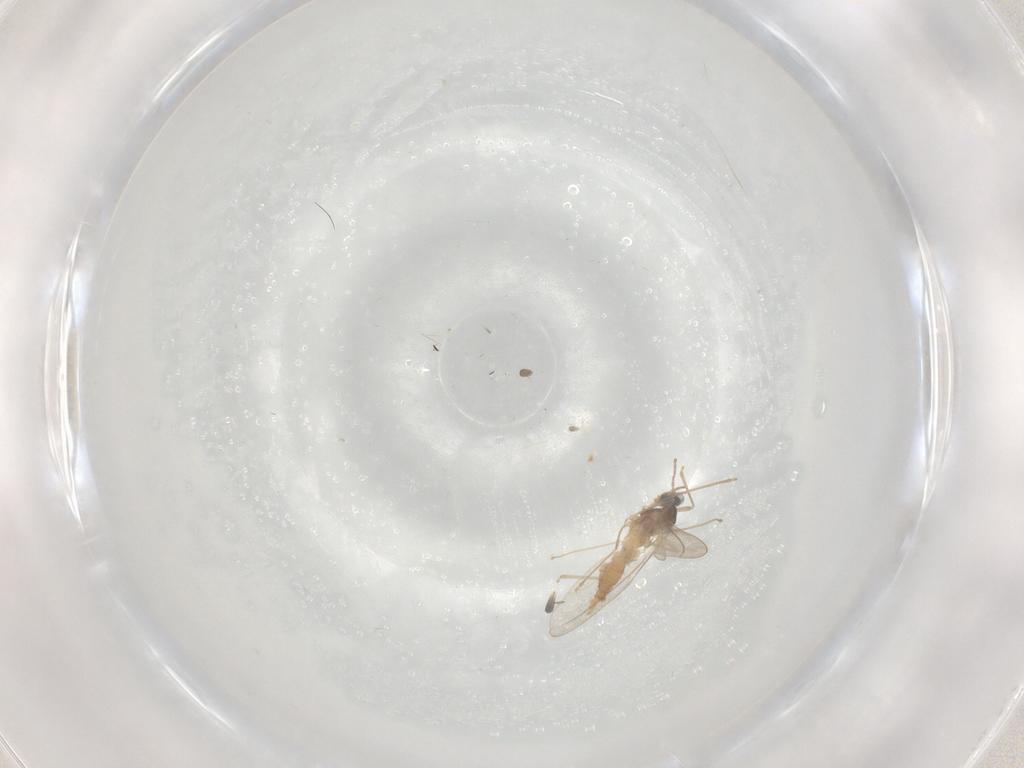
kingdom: Animalia
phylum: Arthropoda
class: Insecta
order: Diptera
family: Cecidomyiidae
